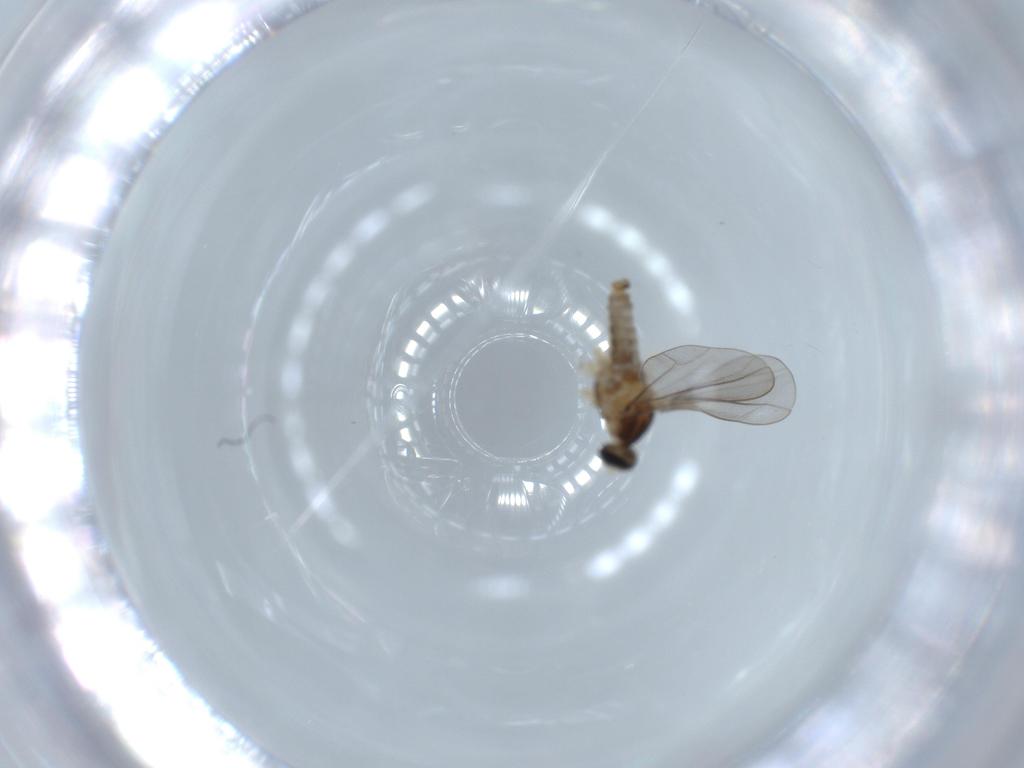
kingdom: Animalia
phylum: Arthropoda
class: Insecta
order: Diptera
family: Cecidomyiidae
